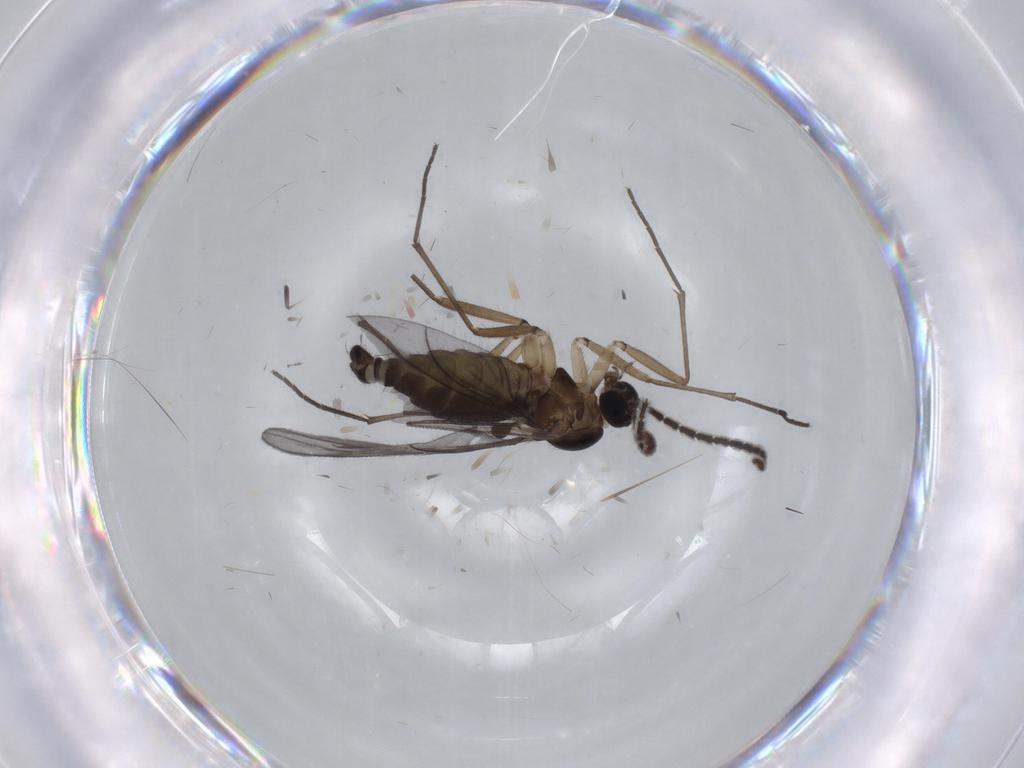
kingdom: Animalia
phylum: Arthropoda
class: Insecta
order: Diptera
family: Sciaridae
